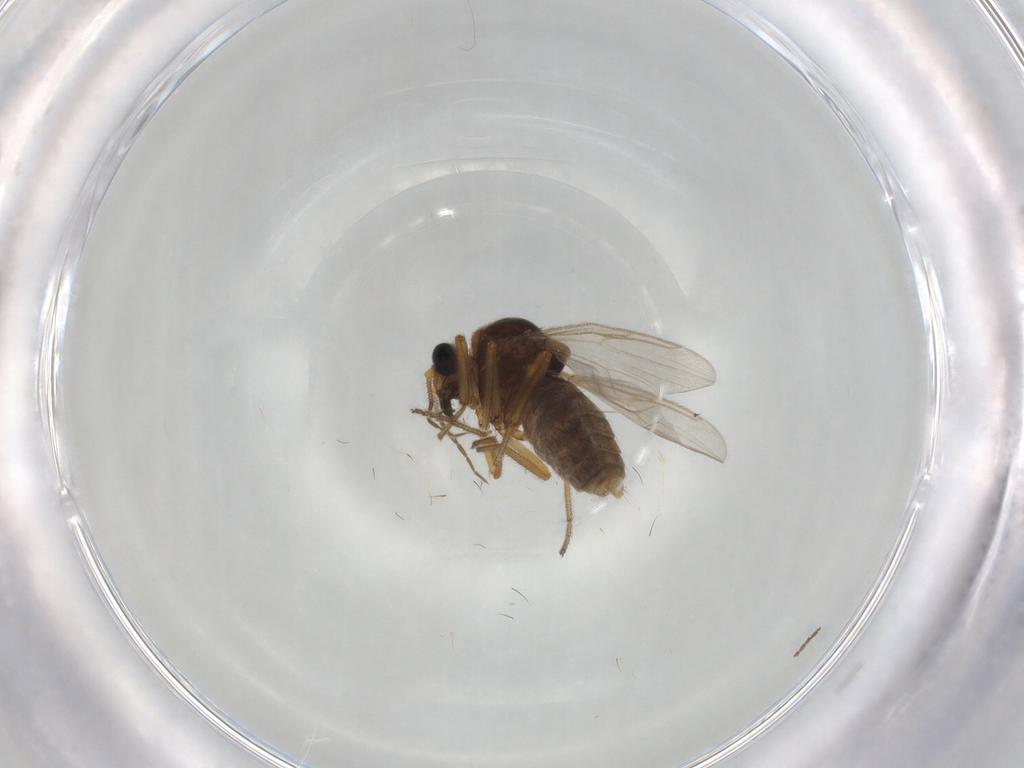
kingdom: Animalia
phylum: Arthropoda
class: Insecta
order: Diptera
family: Ceratopogonidae
